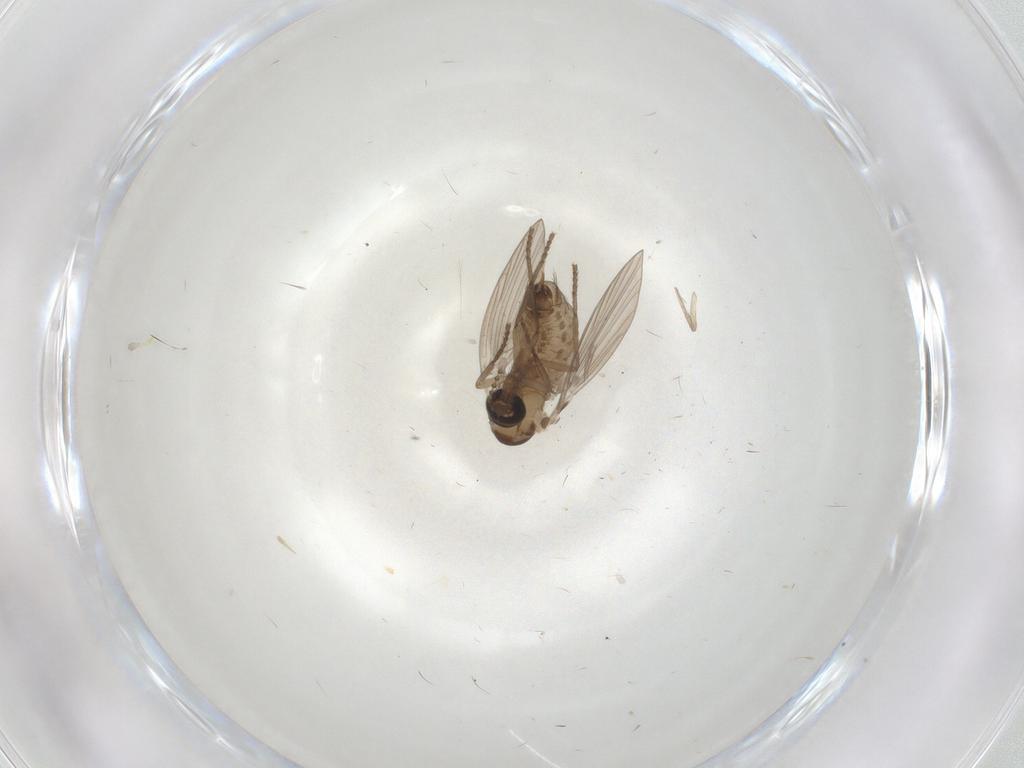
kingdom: Animalia
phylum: Arthropoda
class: Insecta
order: Diptera
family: Psychodidae
